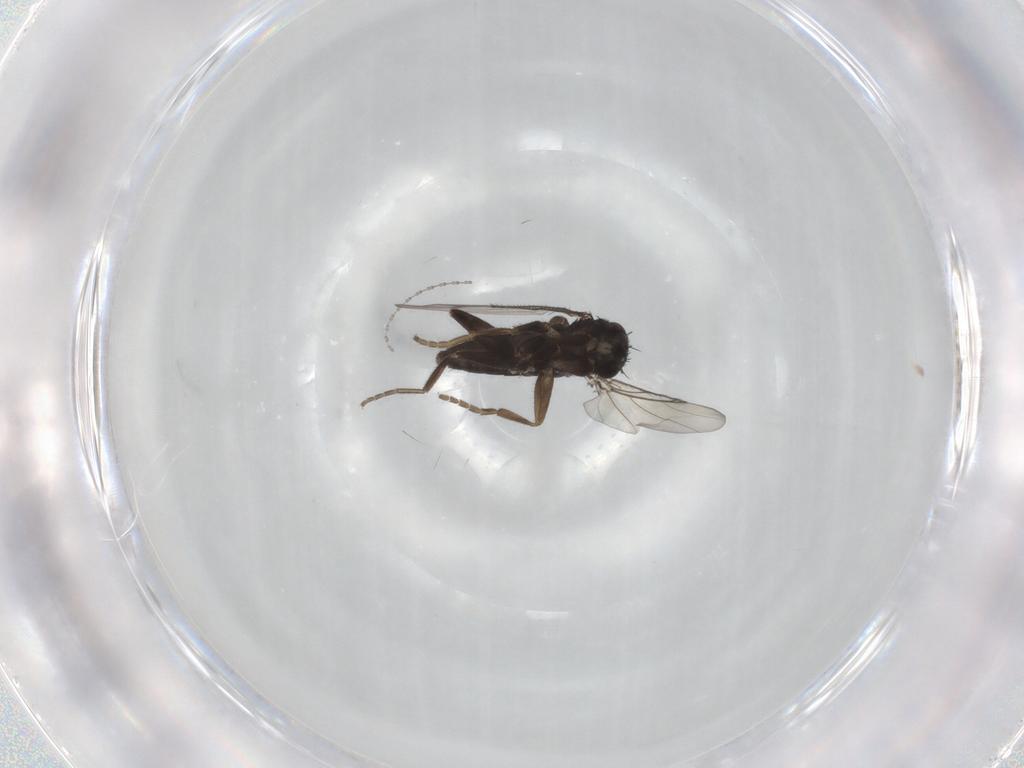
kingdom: Animalia
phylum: Arthropoda
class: Insecta
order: Diptera
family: Phoridae
